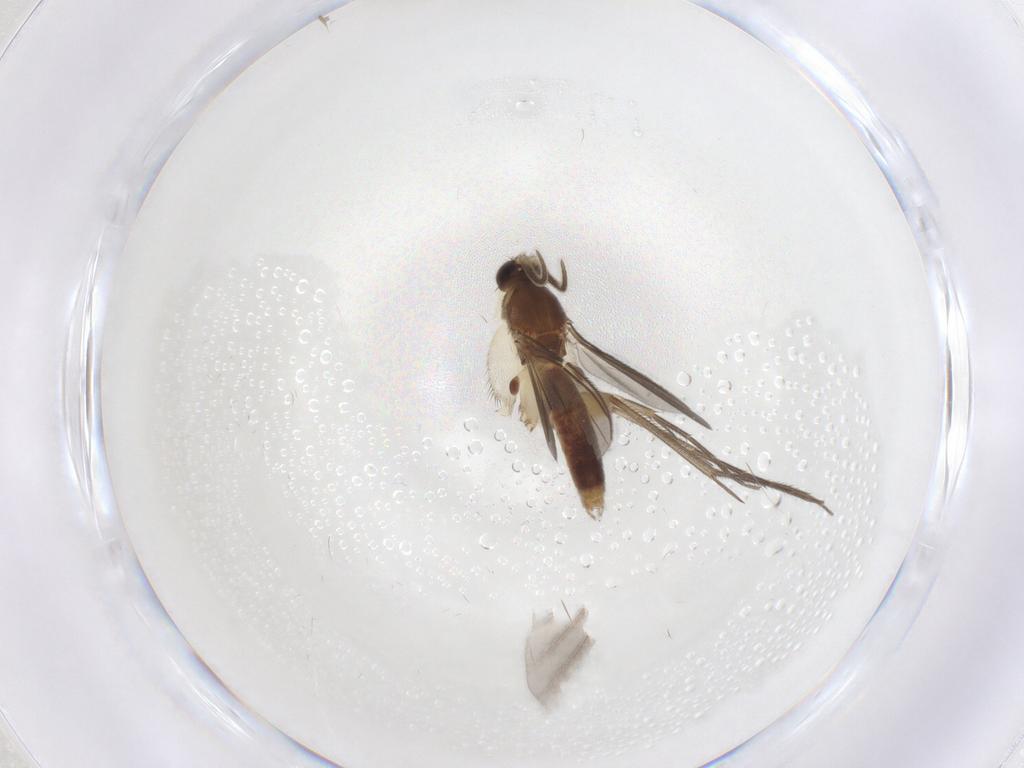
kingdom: Animalia
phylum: Arthropoda
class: Insecta
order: Diptera
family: Mycetophilidae
